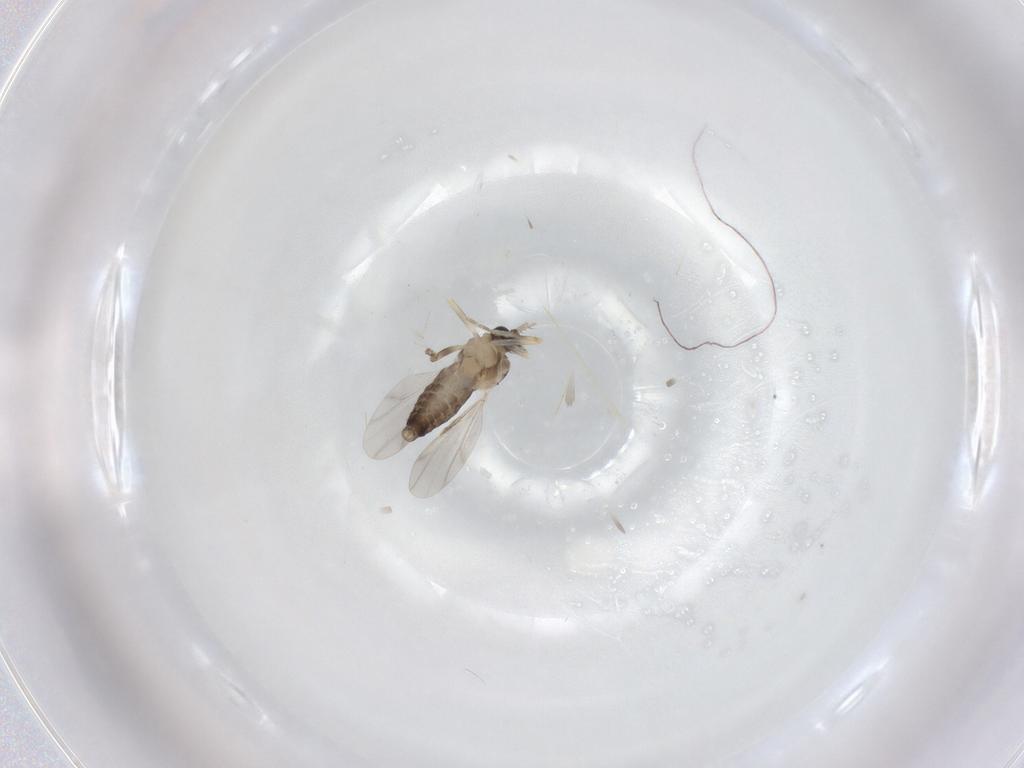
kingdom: Animalia
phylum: Arthropoda
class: Insecta
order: Diptera
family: Ceratopogonidae
